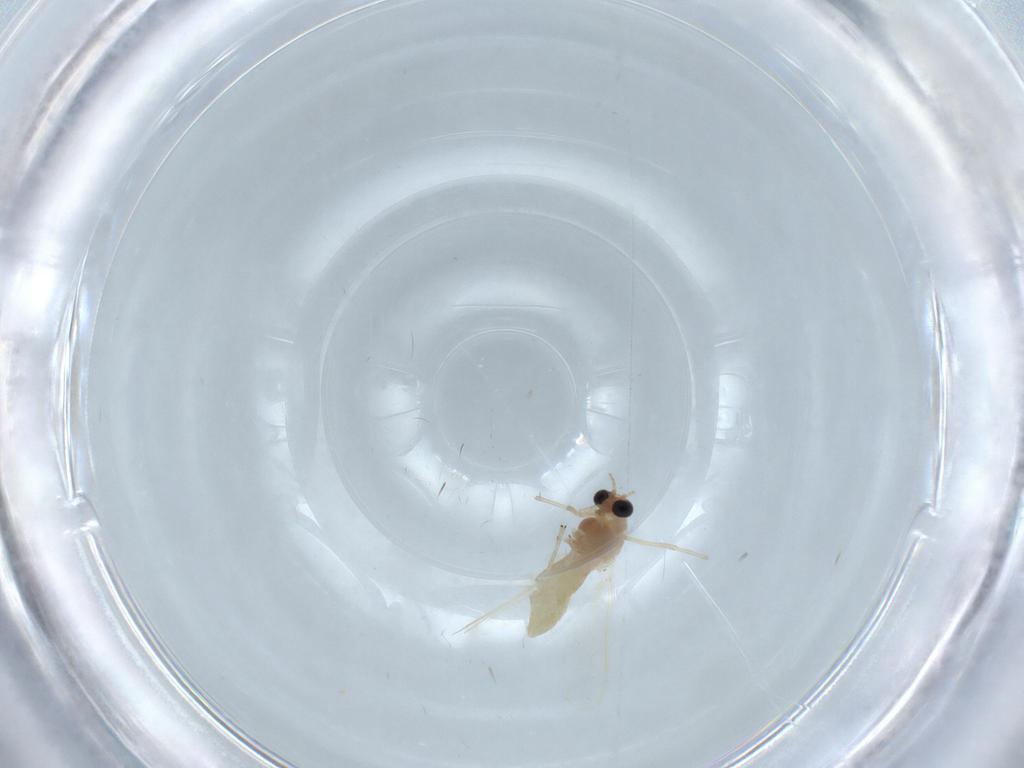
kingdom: Animalia
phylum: Arthropoda
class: Insecta
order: Diptera
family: Chironomidae
